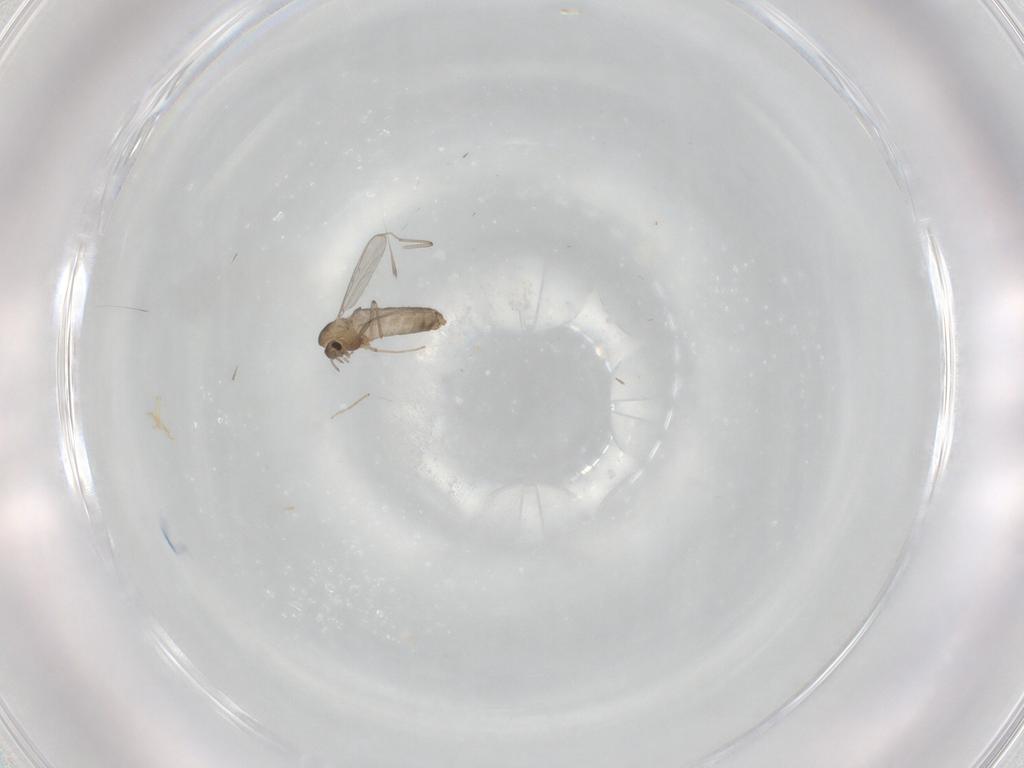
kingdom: Animalia
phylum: Arthropoda
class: Insecta
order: Diptera
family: Chironomidae
